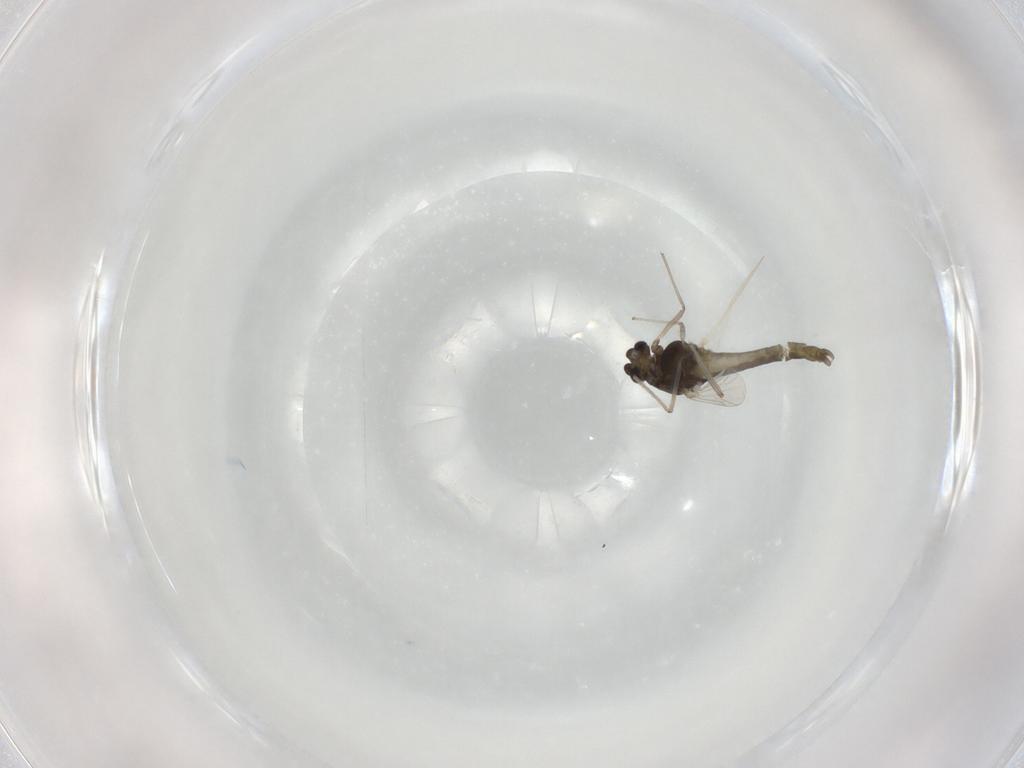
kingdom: Animalia
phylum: Arthropoda
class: Insecta
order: Diptera
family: Chironomidae
